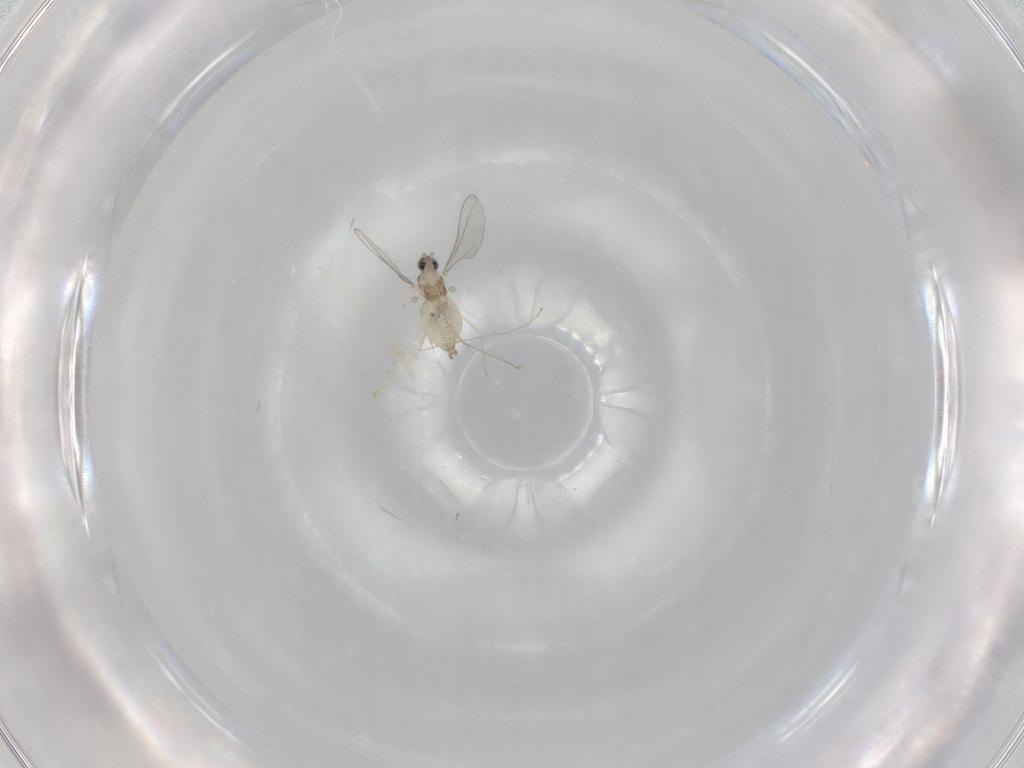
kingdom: Animalia
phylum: Arthropoda
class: Insecta
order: Diptera
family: Cecidomyiidae
